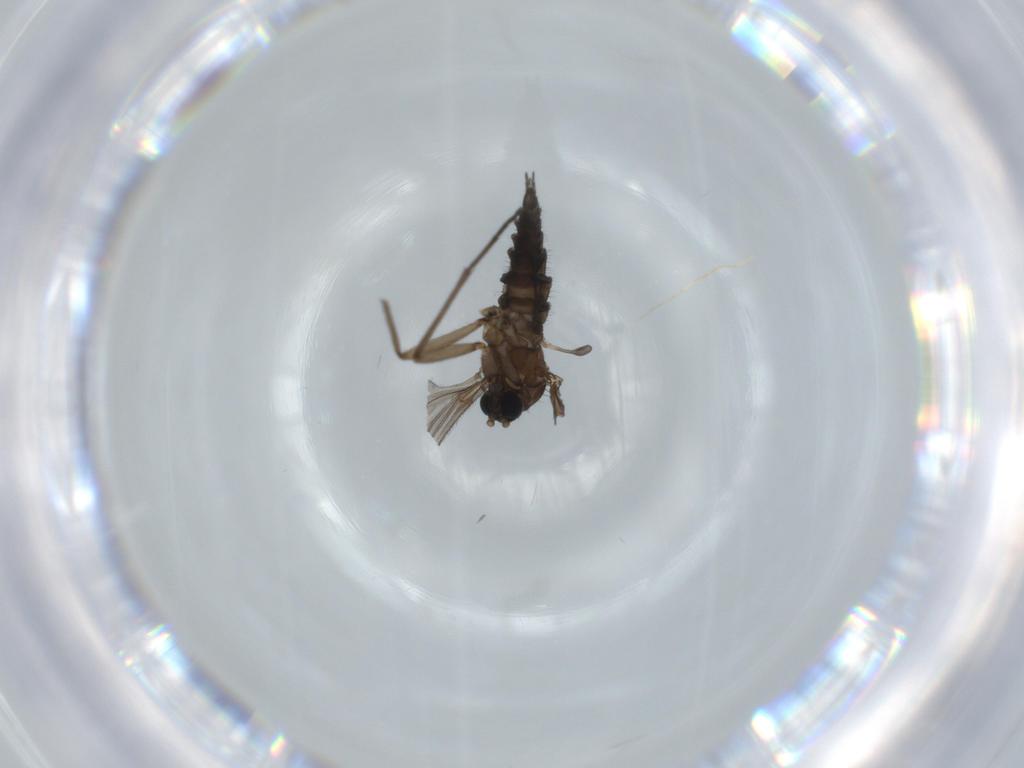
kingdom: Animalia
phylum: Arthropoda
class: Insecta
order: Diptera
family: Sciaridae
